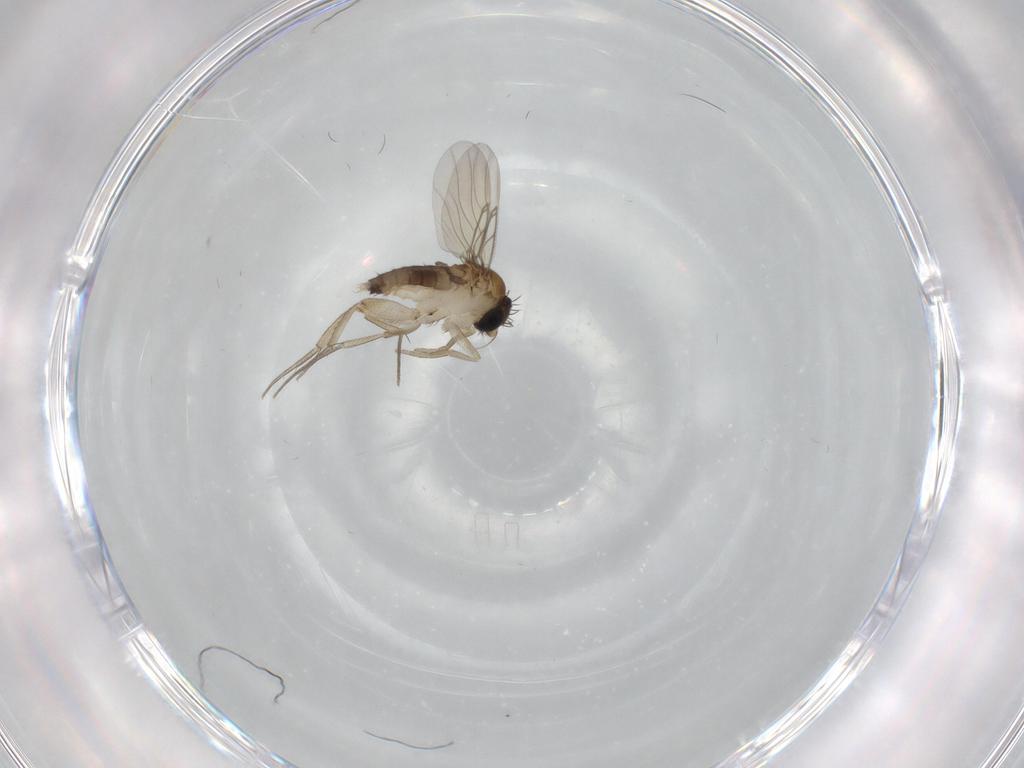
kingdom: Animalia
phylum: Arthropoda
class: Insecta
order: Diptera
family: Phoridae
